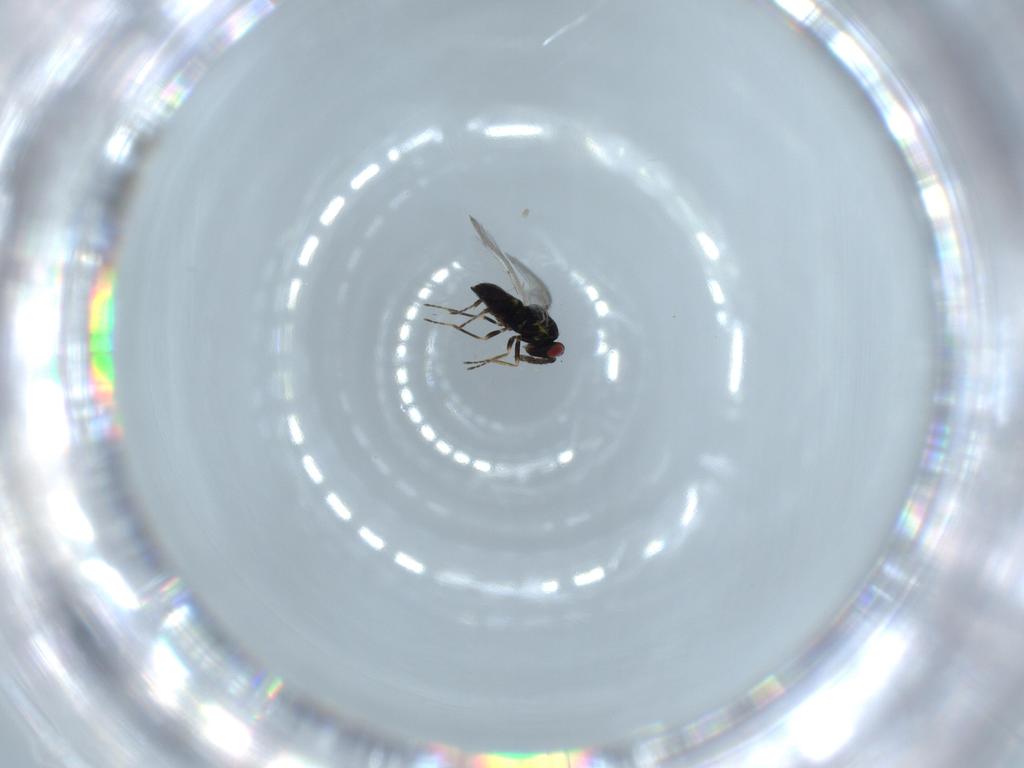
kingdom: Animalia
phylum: Arthropoda
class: Insecta
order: Hymenoptera
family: Eulophidae
